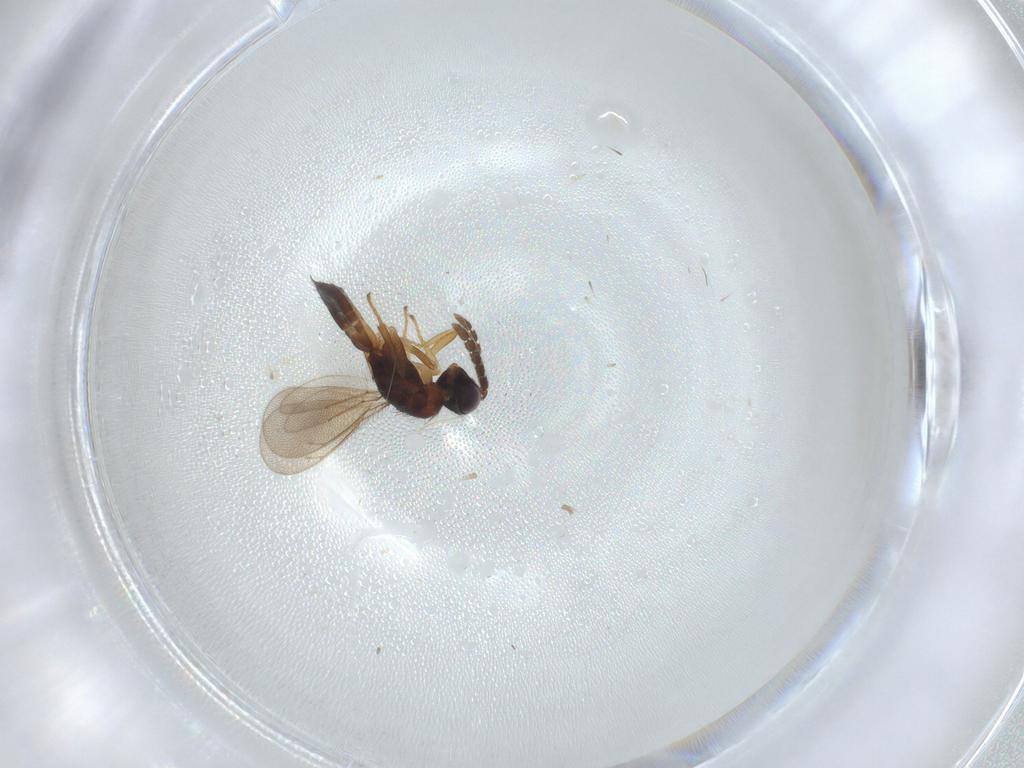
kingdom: Animalia
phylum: Arthropoda
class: Insecta
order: Hymenoptera
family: Eulophidae
